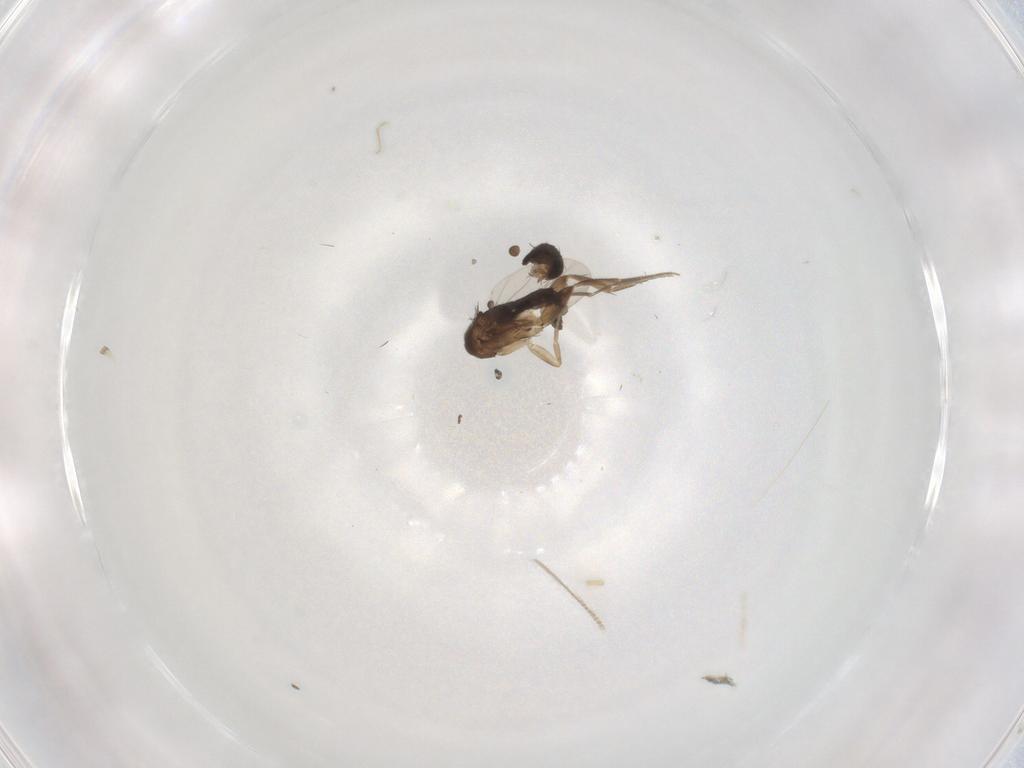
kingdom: Animalia
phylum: Arthropoda
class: Insecta
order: Diptera
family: Phoridae
